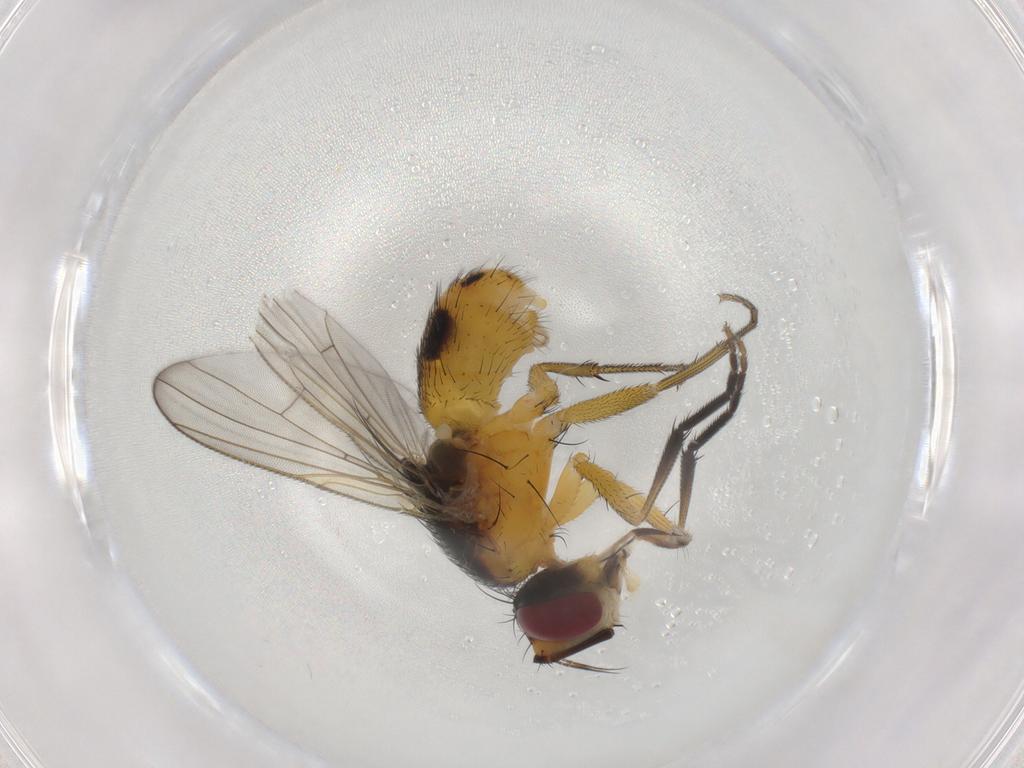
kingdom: Animalia
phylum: Arthropoda
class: Insecta
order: Diptera
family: Muscidae
